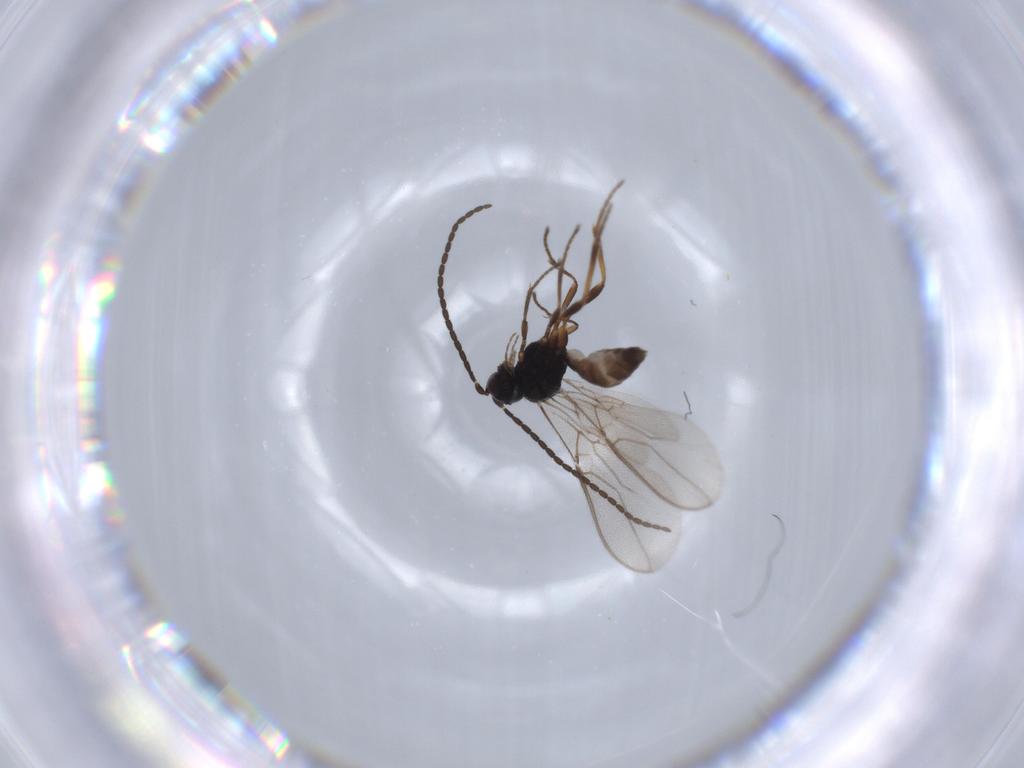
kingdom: Animalia
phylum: Arthropoda
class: Insecta
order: Hymenoptera
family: Braconidae
